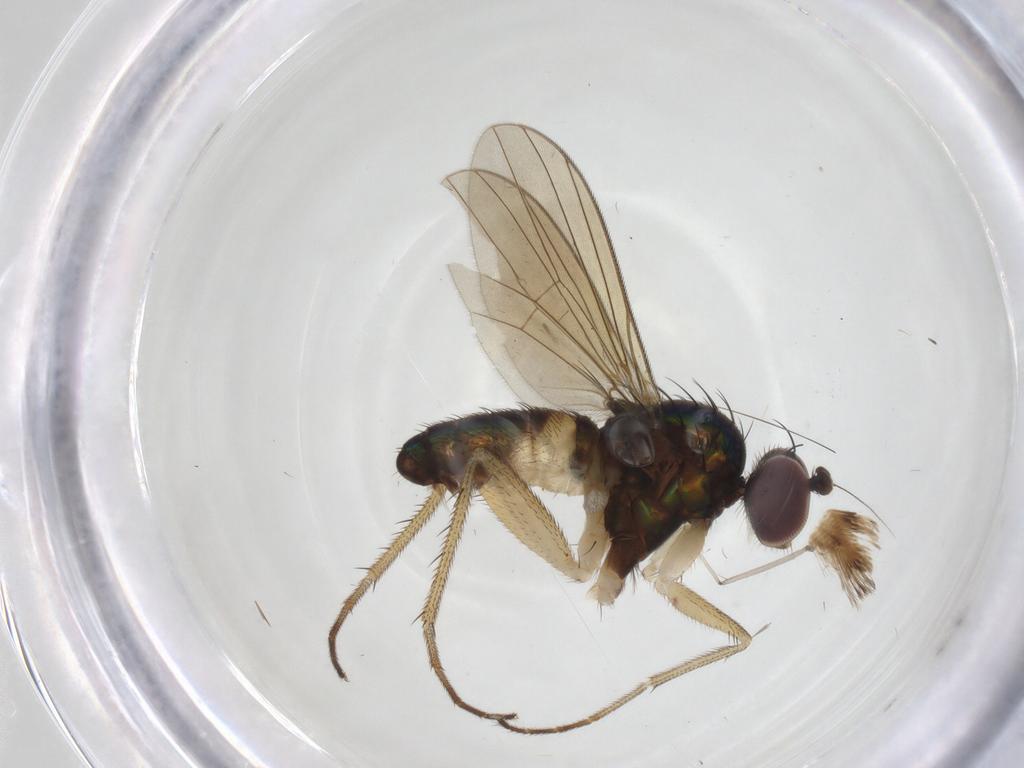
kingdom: Animalia
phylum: Arthropoda
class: Insecta
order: Diptera
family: Dolichopodidae
